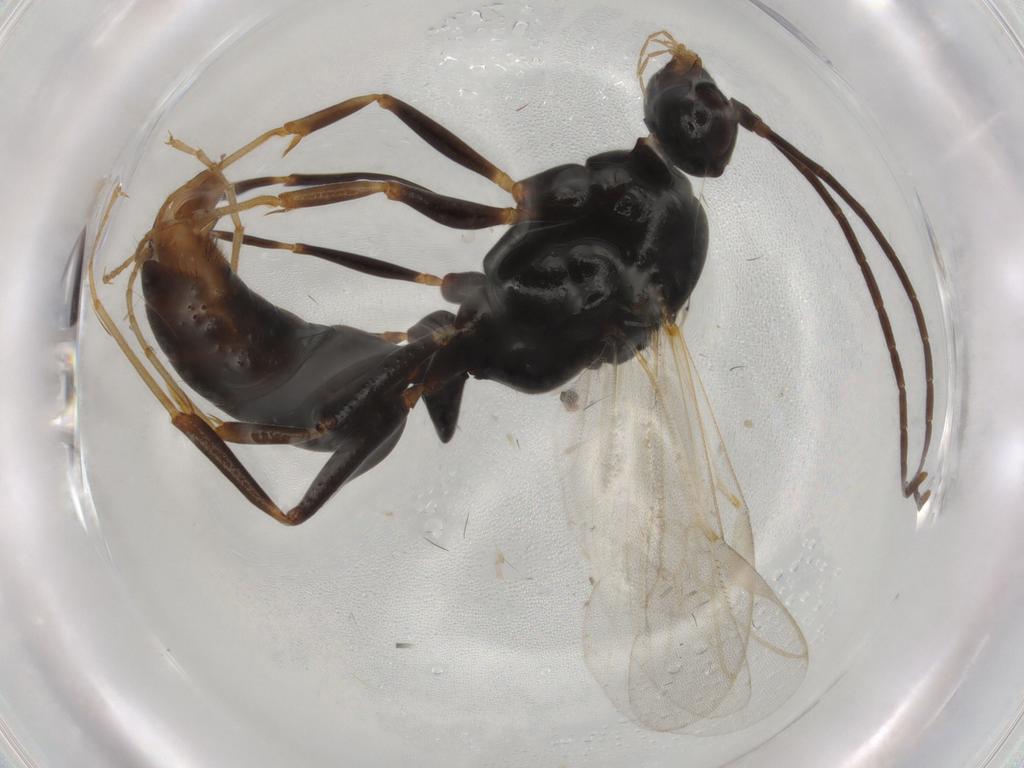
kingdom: Animalia
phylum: Arthropoda
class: Insecta
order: Hymenoptera
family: Formicidae
